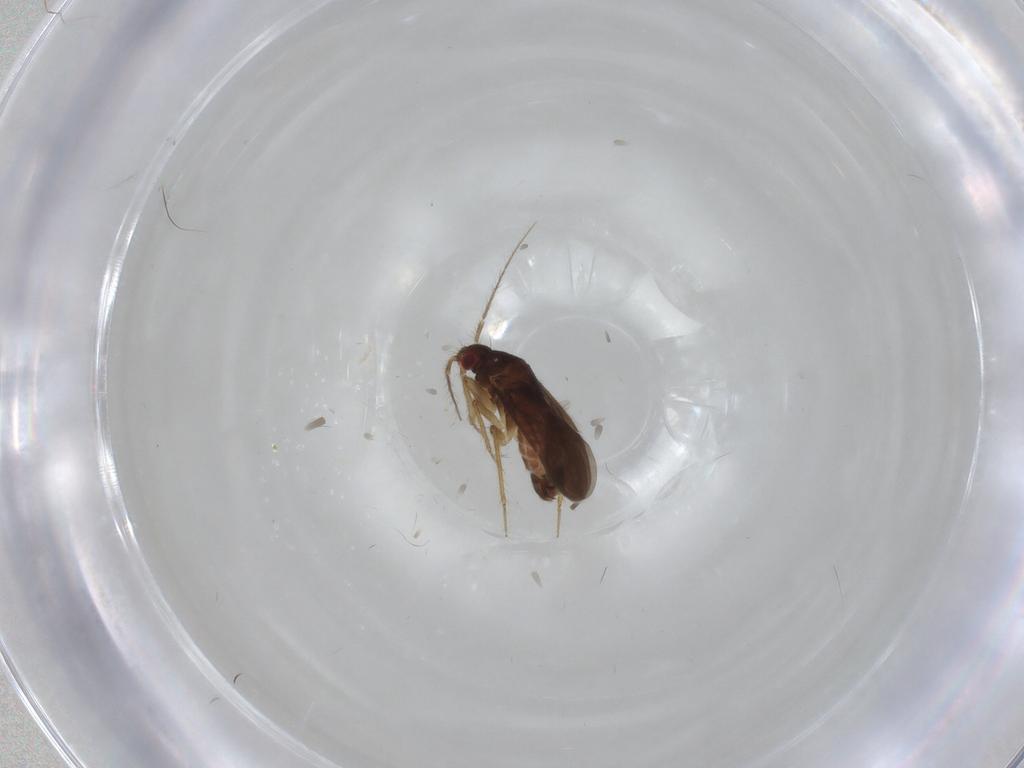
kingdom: Animalia
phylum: Arthropoda
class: Insecta
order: Hemiptera
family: Ceratocombidae
